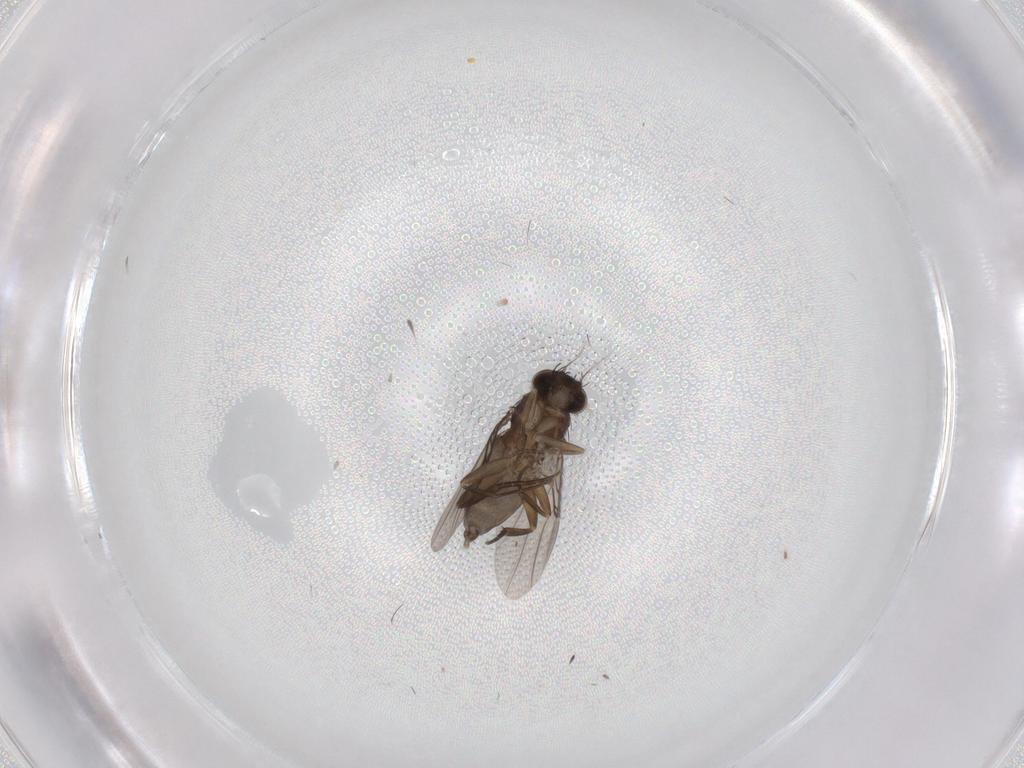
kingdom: Animalia
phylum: Arthropoda
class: Insecta
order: Diptera
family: Phoridae
